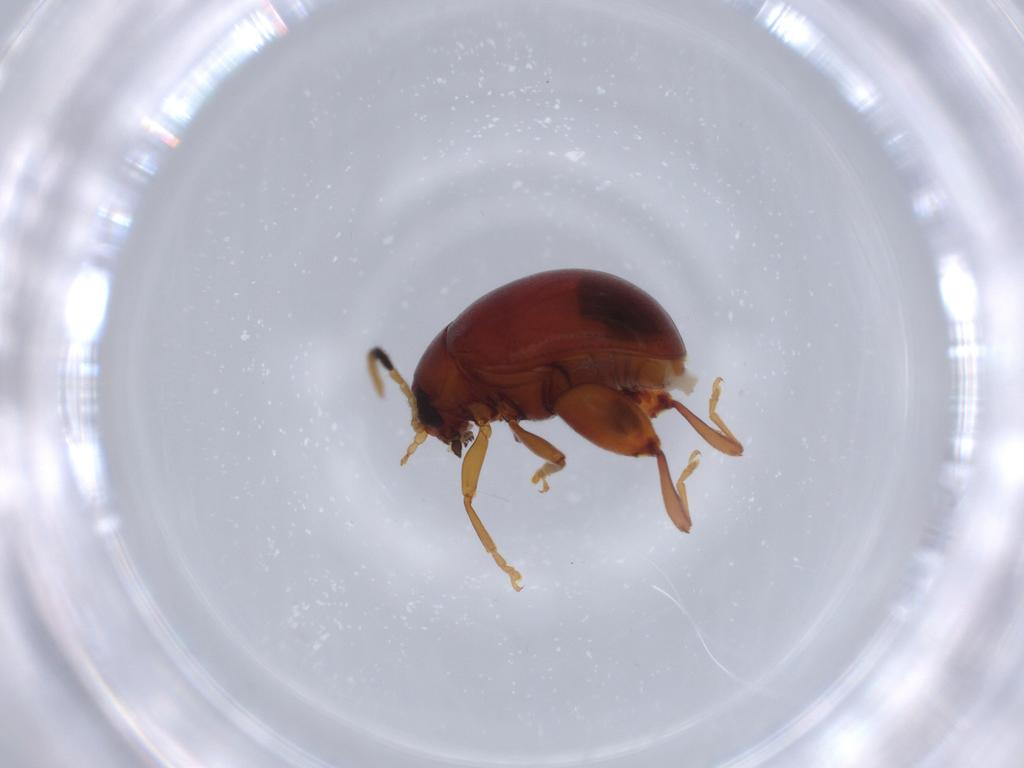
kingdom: Animalia
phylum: Arthropoda
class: Insecta
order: Coleoptera
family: Chrysomelidae
